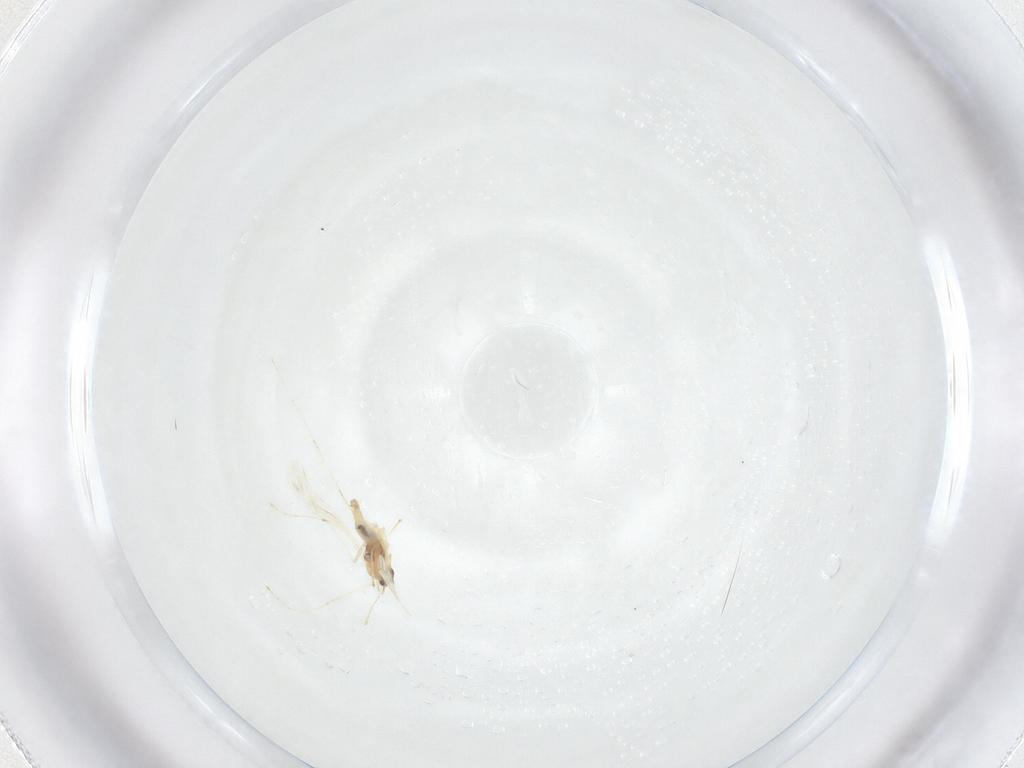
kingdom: Animalia
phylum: Arthropoda
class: Insecta
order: Diptera
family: Cecidomyiidae
